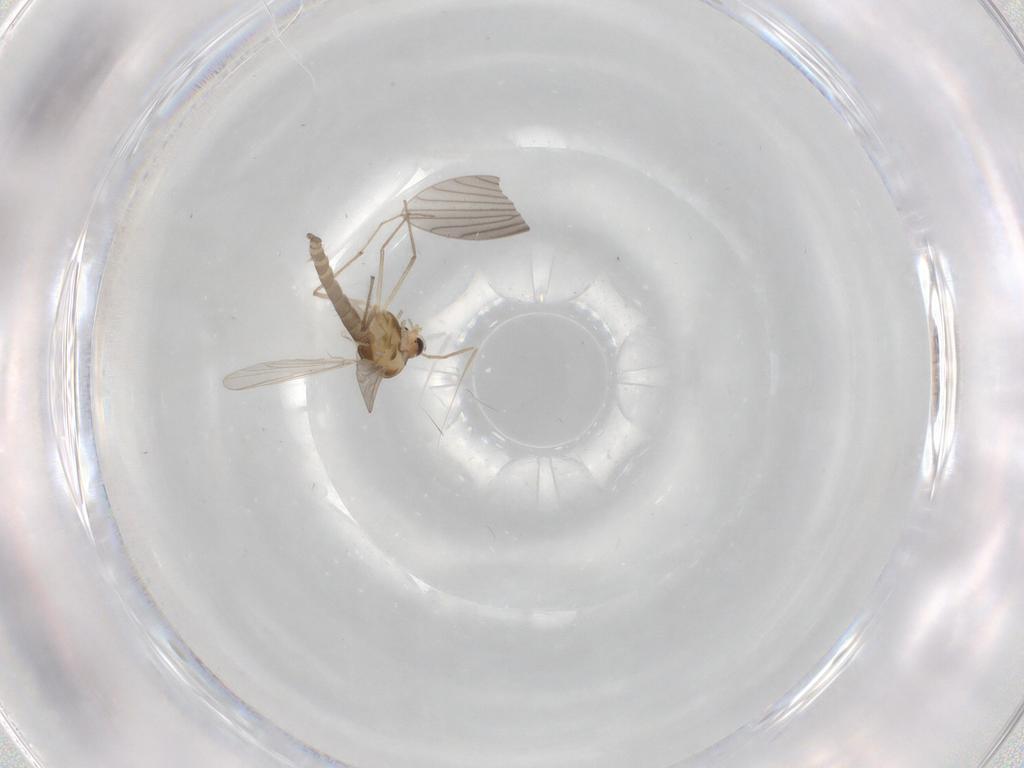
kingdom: Animalia
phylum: Arthropoda
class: Insecta
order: Diptera
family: Chironomidae
